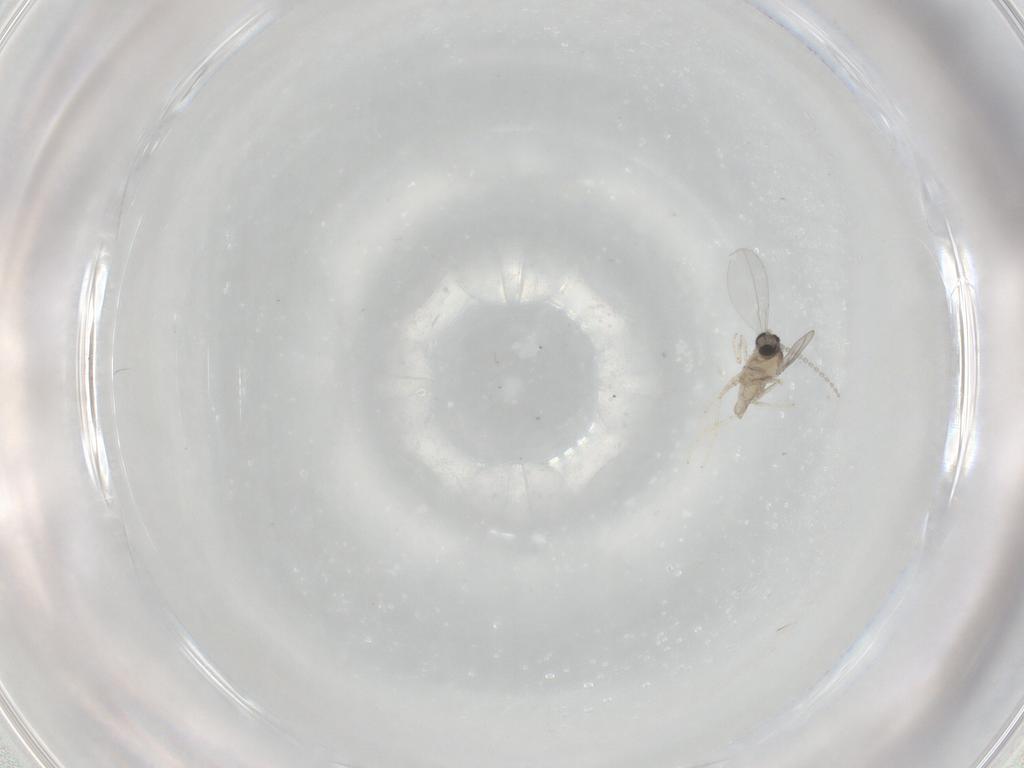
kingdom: Animalia
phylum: Arthropoda
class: Insecta
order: Diptera
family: Cecidomyiidae
